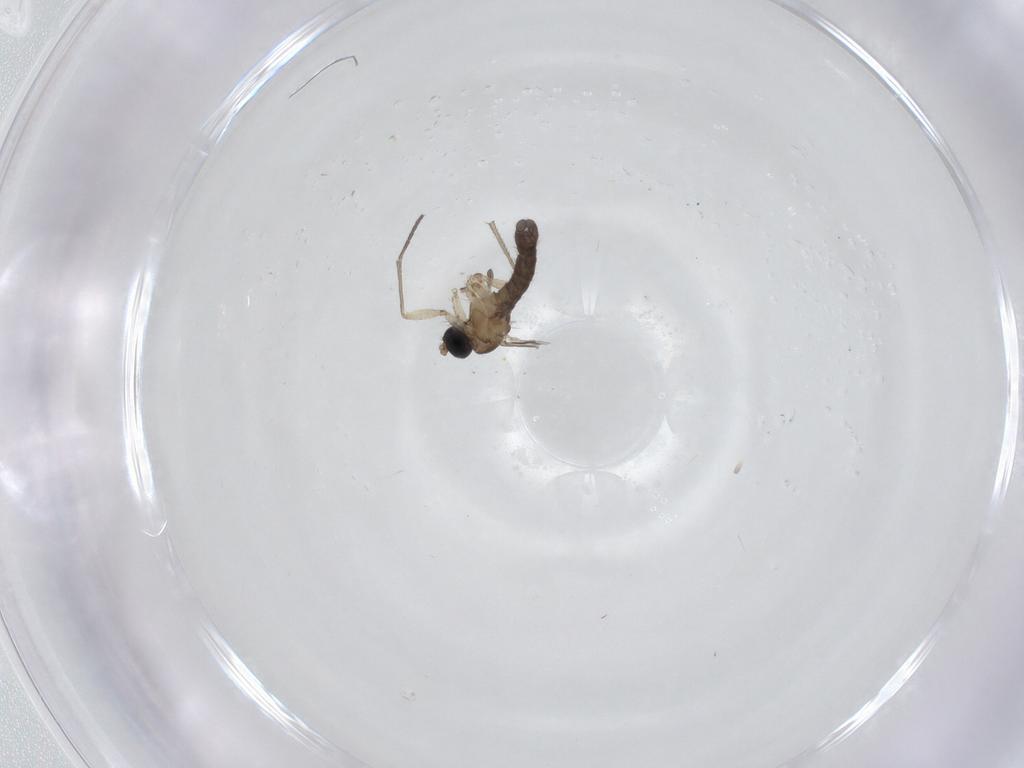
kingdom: Animalia
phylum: Arthropoda
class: Insecta
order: Diptera
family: Sciaridae
